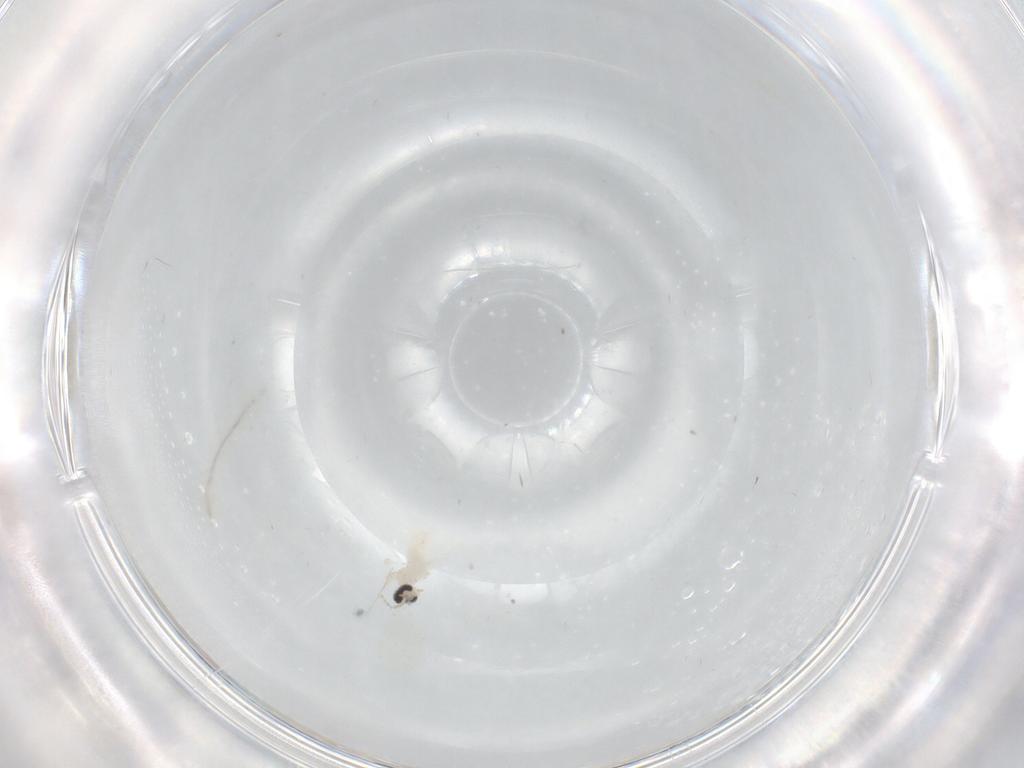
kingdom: Animalia
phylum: Arthropoda
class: Insecta
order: Diptera
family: Cecidomyiidae
